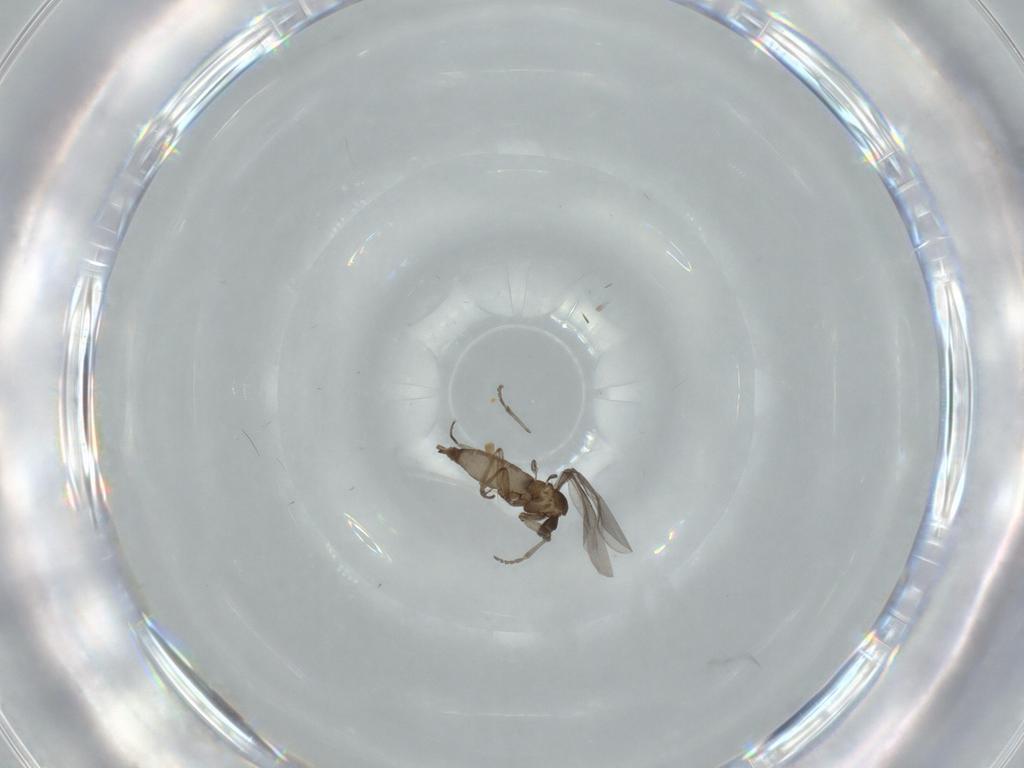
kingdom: Animalia
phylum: Arthropoda
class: Insecta
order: Diptera
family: Sciaridae
